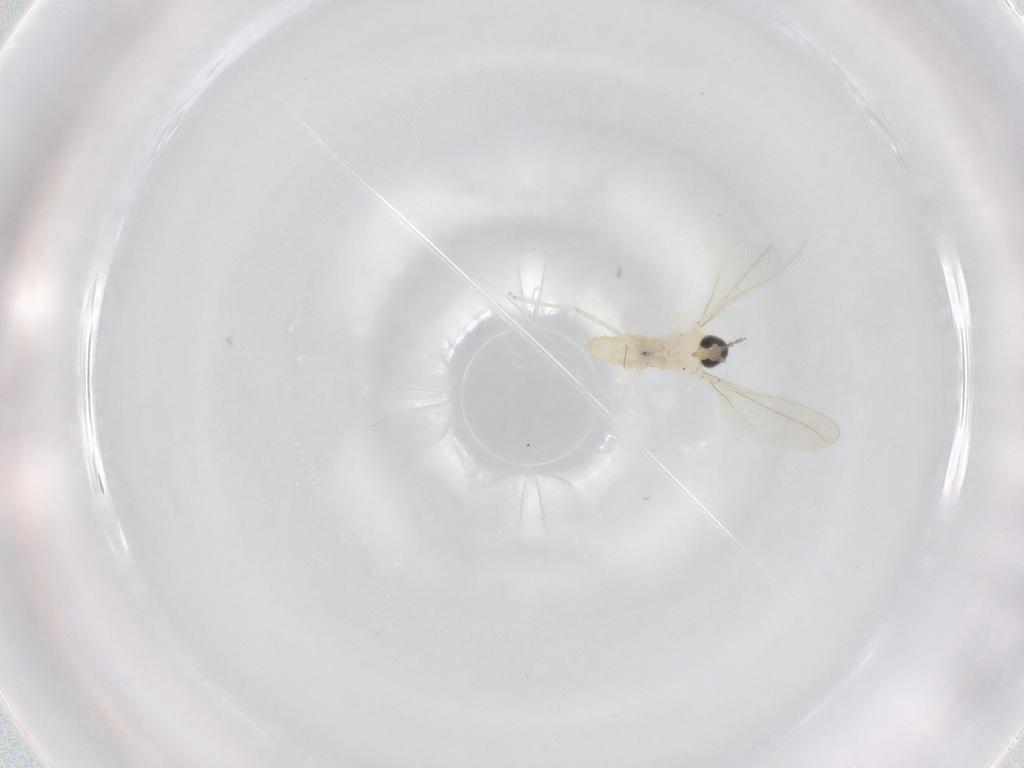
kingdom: Animalia
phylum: Arthropoda
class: Insecta
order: Diptera
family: Cecidomyiidae
